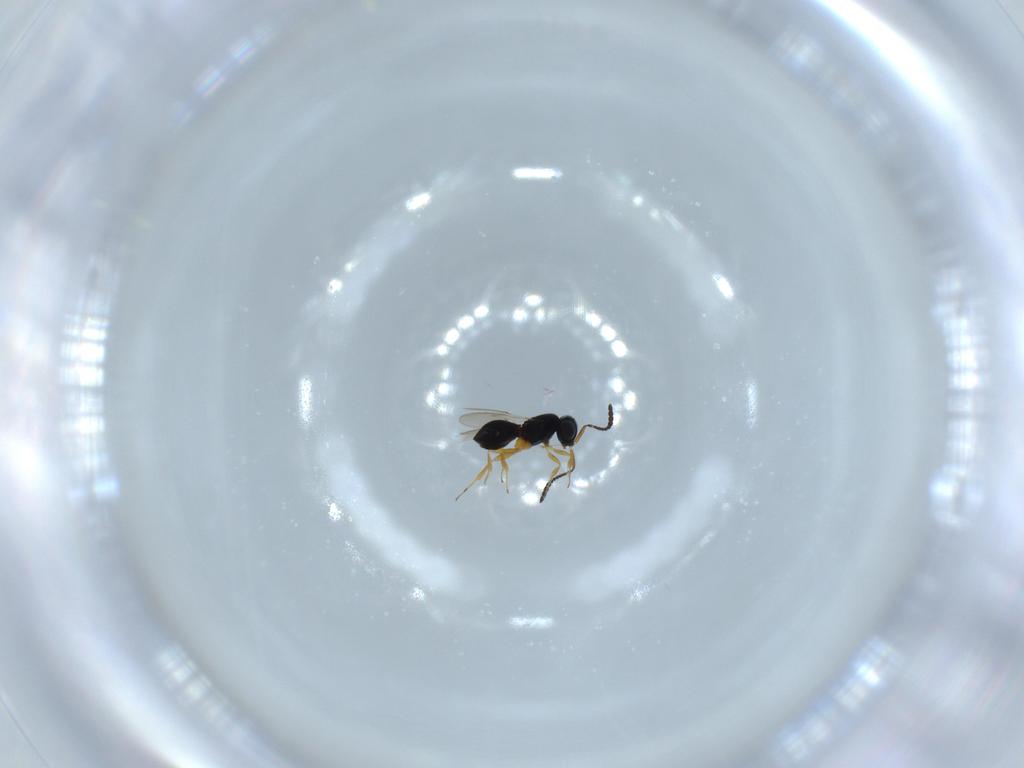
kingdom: Animalia
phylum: Arthropoda
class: Insecta
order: Hymenoptera
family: Scelionidae
